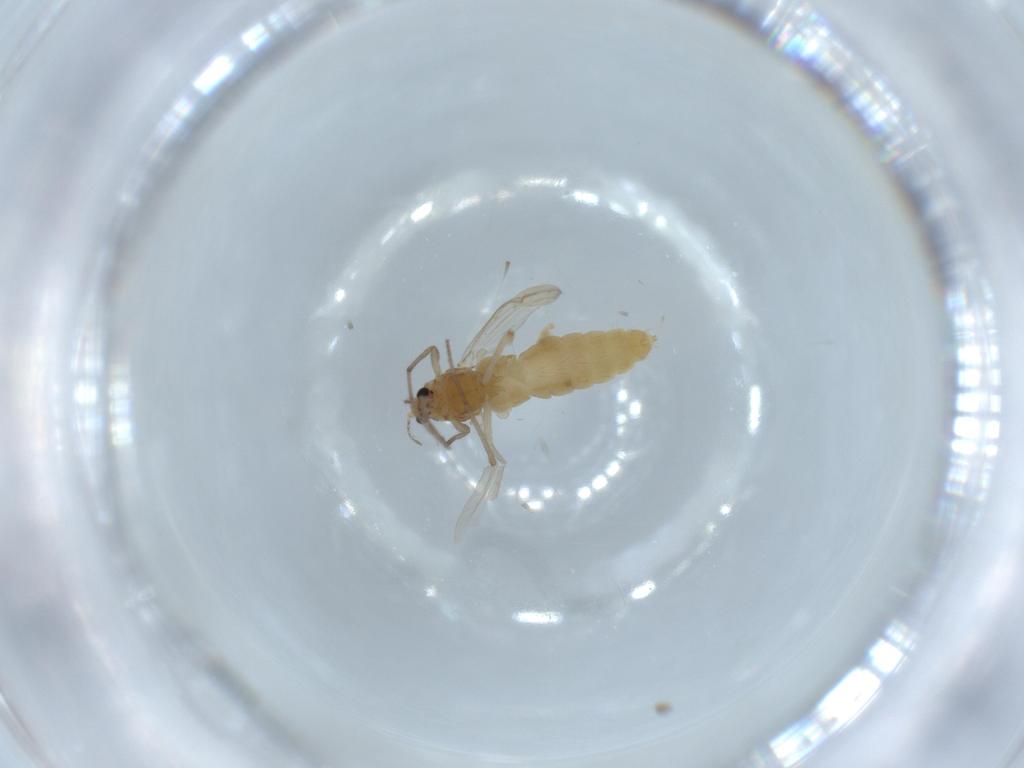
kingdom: Animalia
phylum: Arthropoda
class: Insecta
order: Diptera
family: Chironomidae
